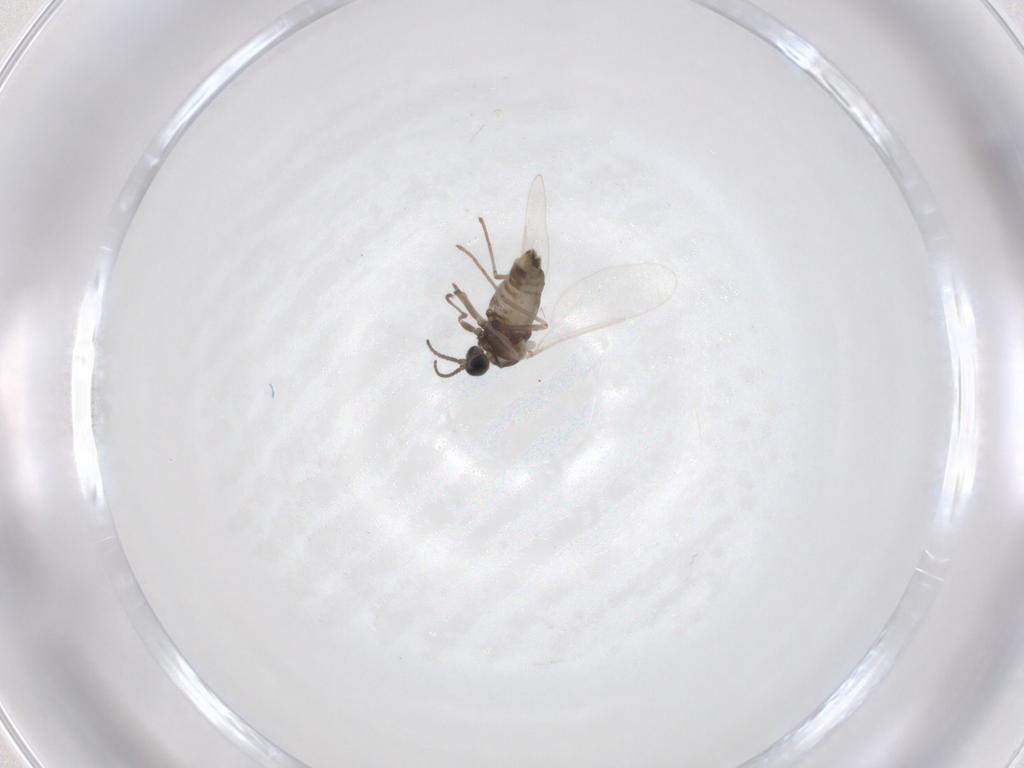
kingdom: Animalia
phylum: Arthropoda
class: Insecta
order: Diptera
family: Cecidomyiidae
